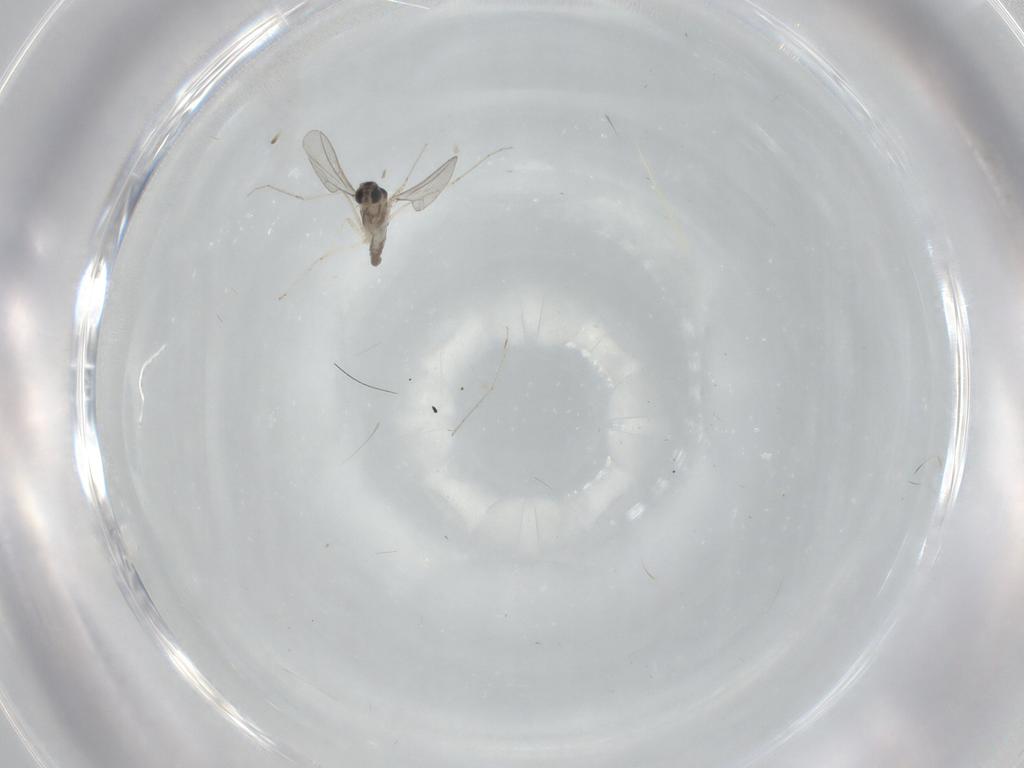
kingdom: Animalia
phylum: Arthropoda
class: Insecta
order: Diptera
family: Cecidomyiidae
